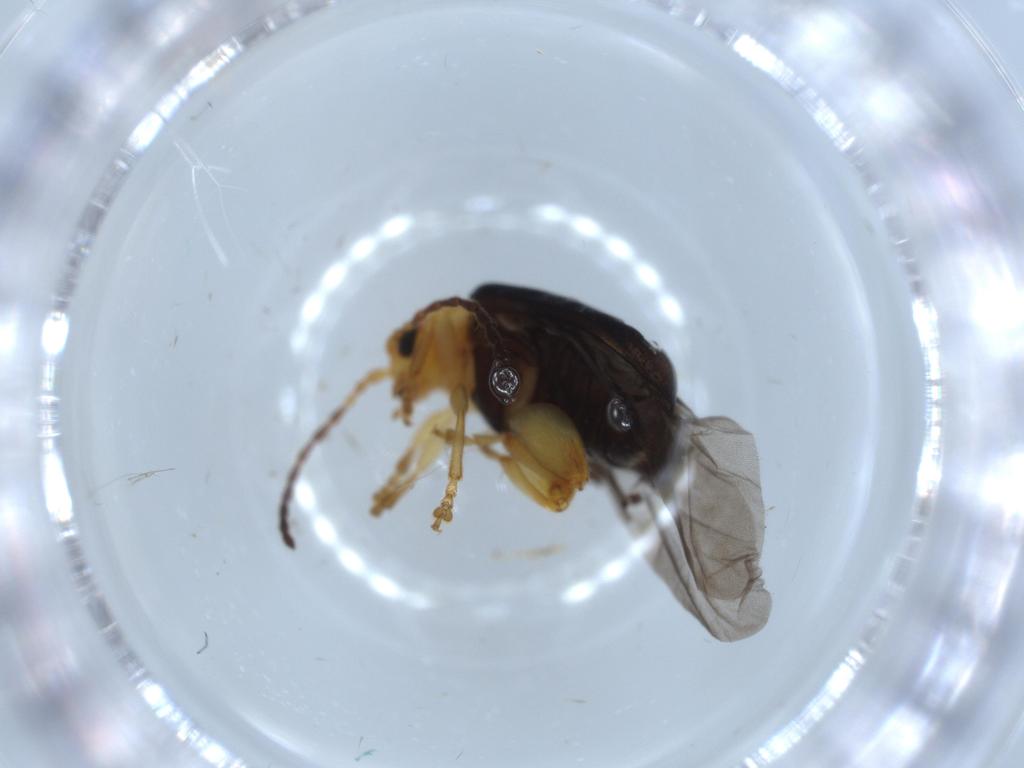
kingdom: Animalia
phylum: Arthropoda
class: Insecta
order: Coleoptera
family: Chrysomelidae
